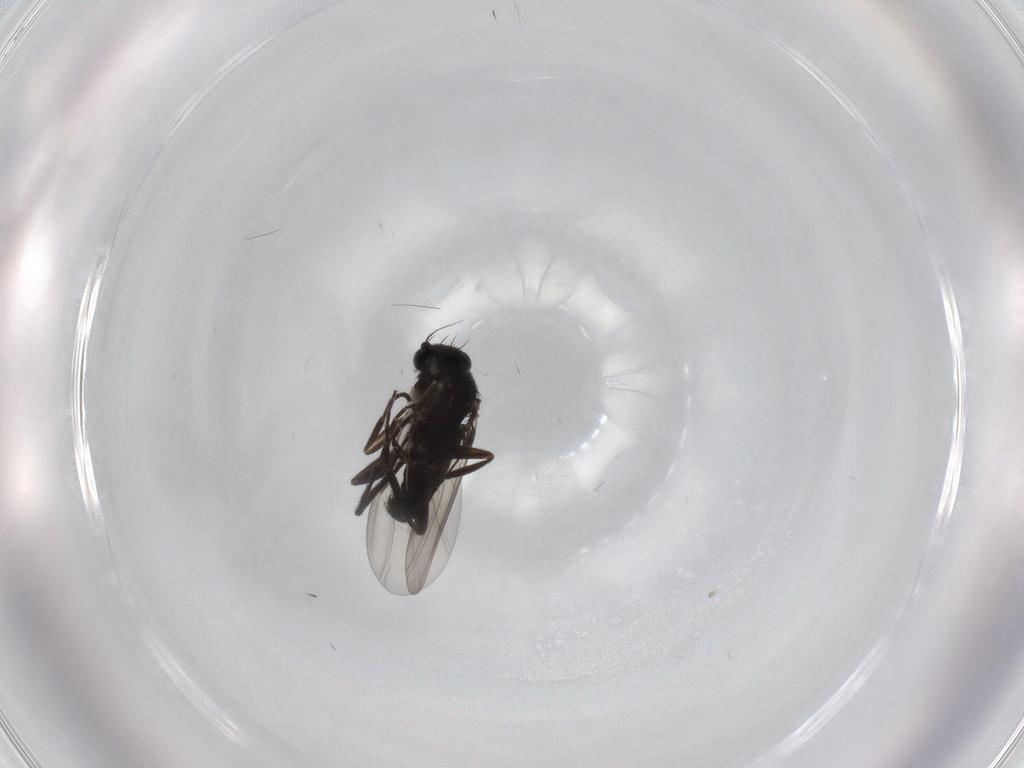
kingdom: Animalia
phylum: Arthropoda
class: Insecta
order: Diptera
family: Phoridae
